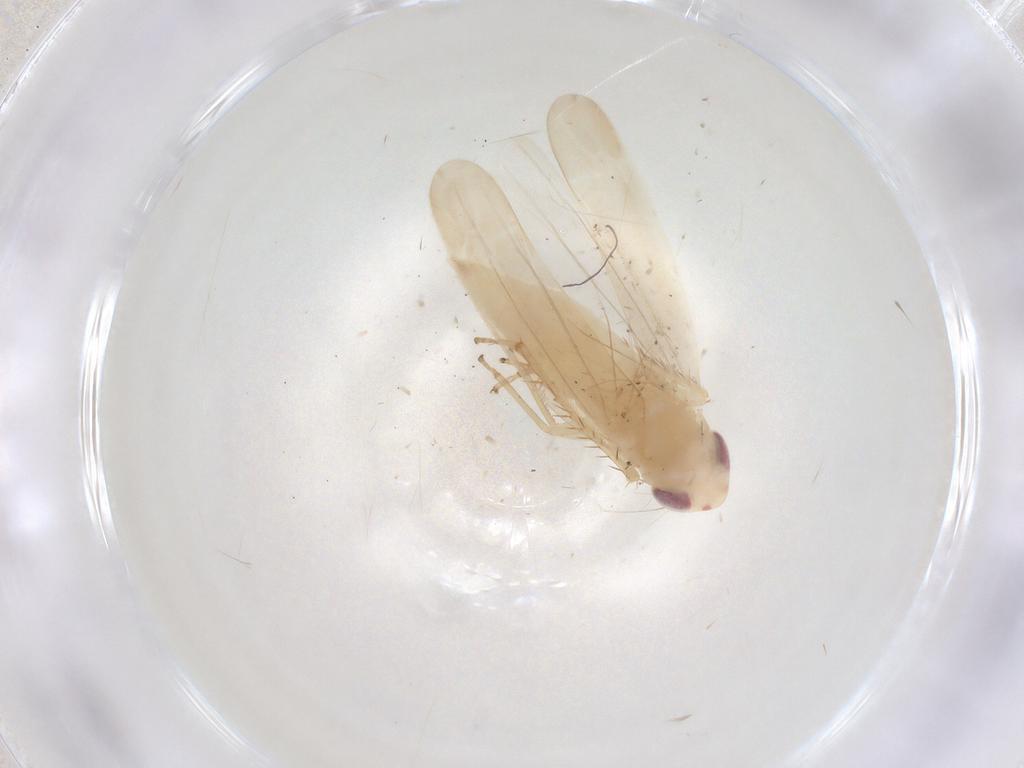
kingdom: Animalia
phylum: Arthropoda
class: Insecta
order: Hemiptera
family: Cicadellidae
